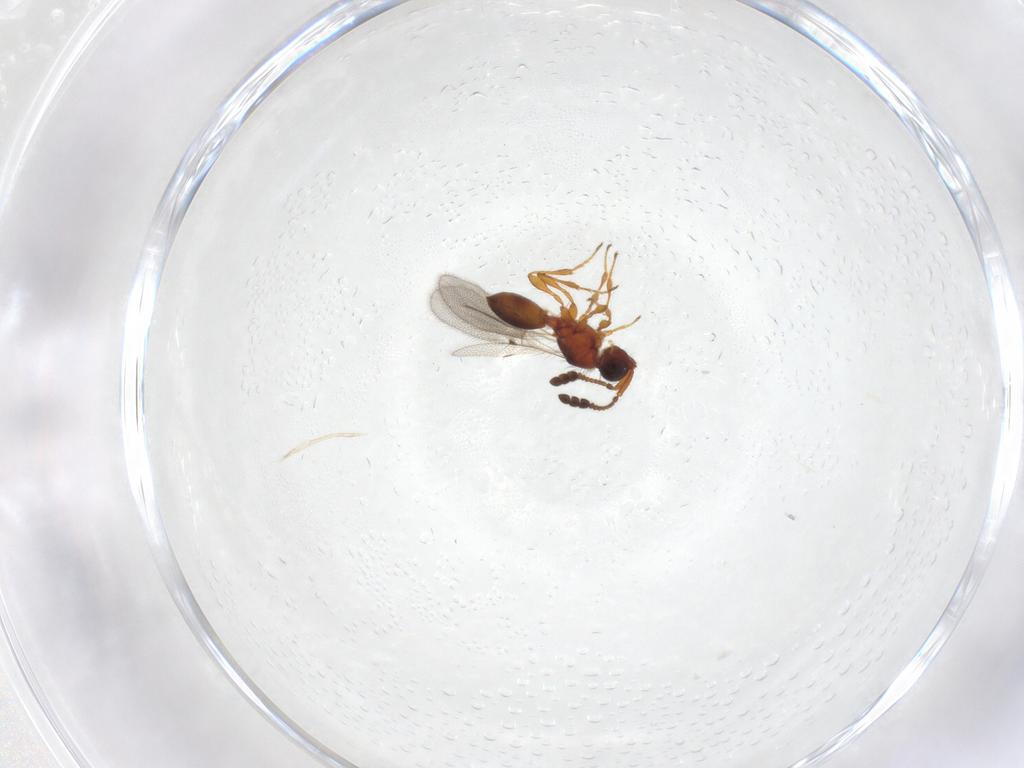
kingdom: Animalia
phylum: Arthropoda
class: Insecta
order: Hymenoptera
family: Diapriidae
